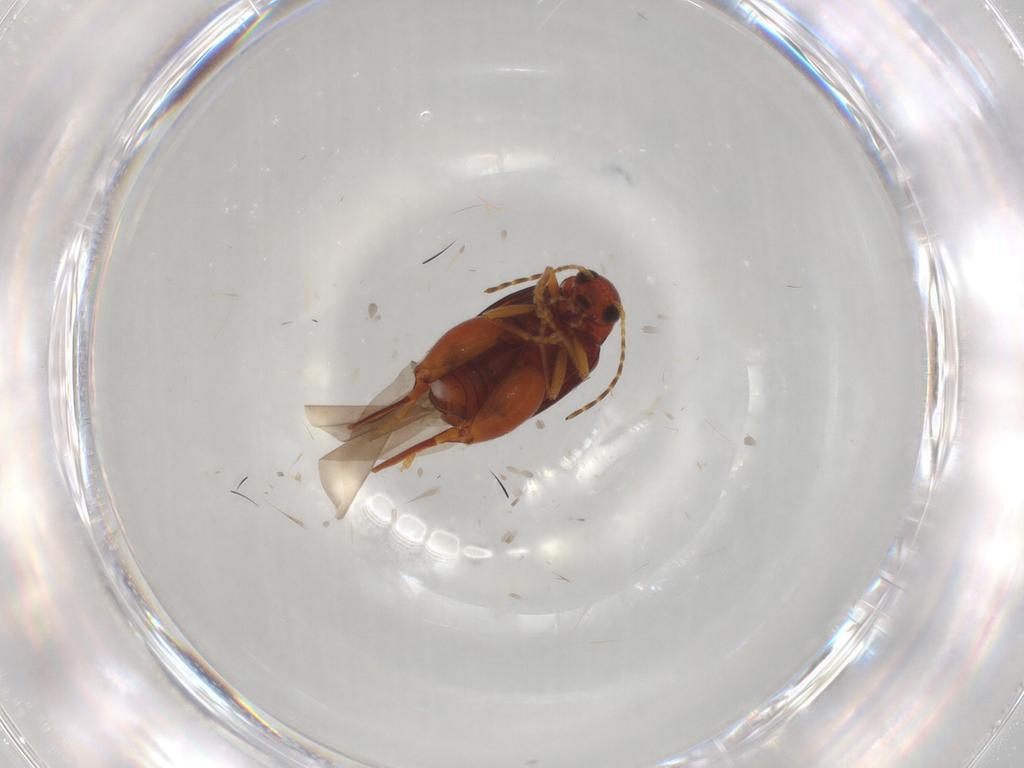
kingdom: Animalia
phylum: Arthropoda
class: Insecta
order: Coleoptera
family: Chrysomelidae
